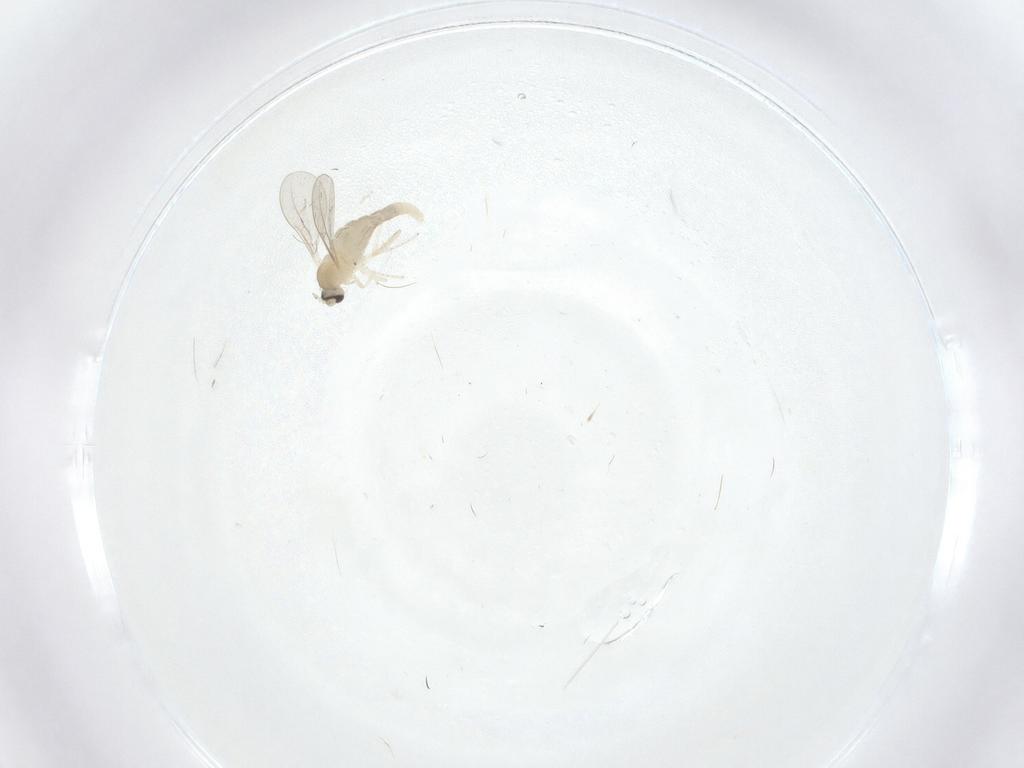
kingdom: Animalia
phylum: Arthropoda
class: Insecta
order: Diptera
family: Cecidomyiidae
